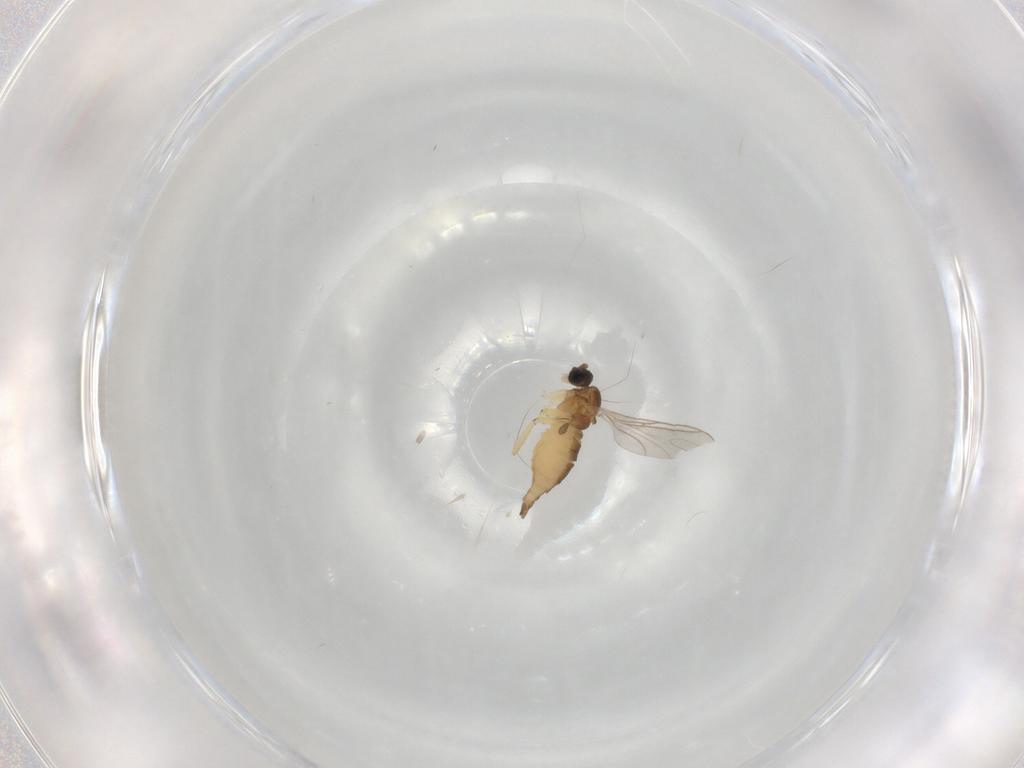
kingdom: Animalia
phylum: Arthropoda
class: Insecta
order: Diptera
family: Sciaridae
